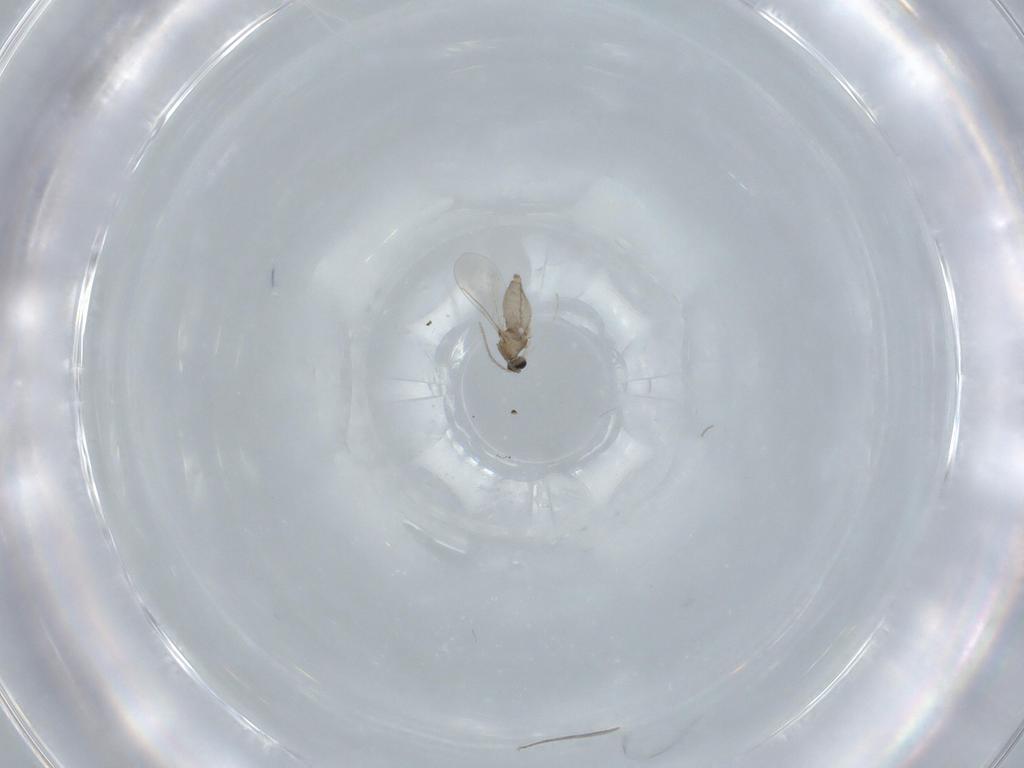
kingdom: Animalia
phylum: Arthropoda
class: Insecta
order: Diptera
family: Cecidomyiidae
